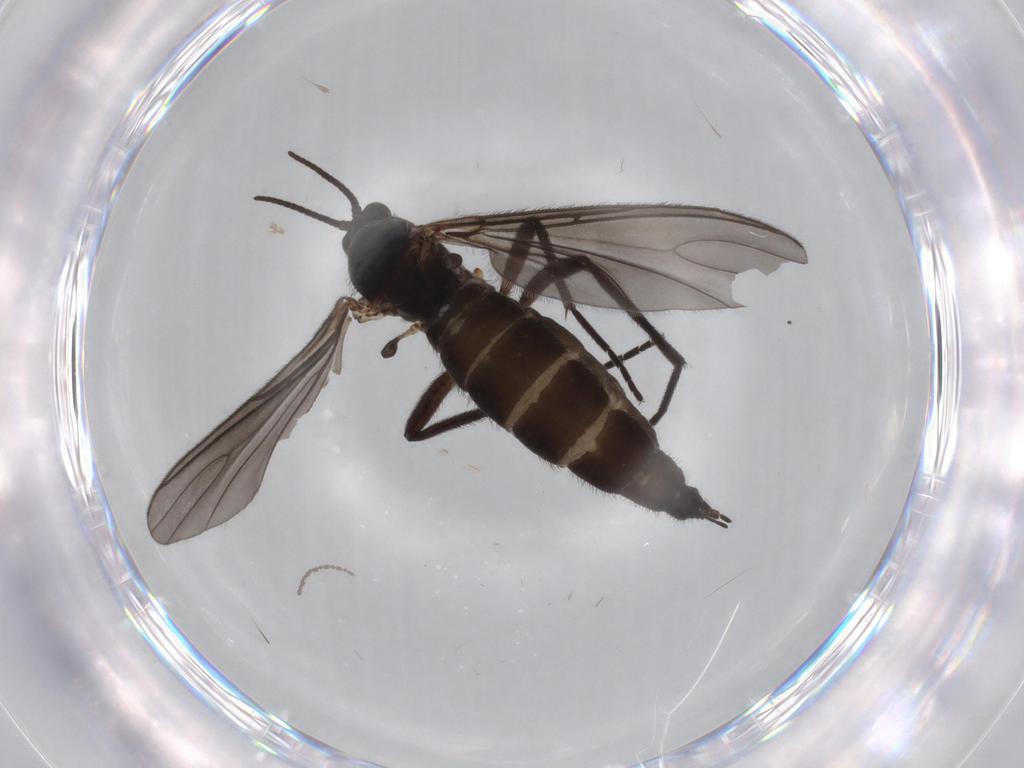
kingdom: Animalia
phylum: Arthropoda
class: Insecta
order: Diptera
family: Sciaridae
